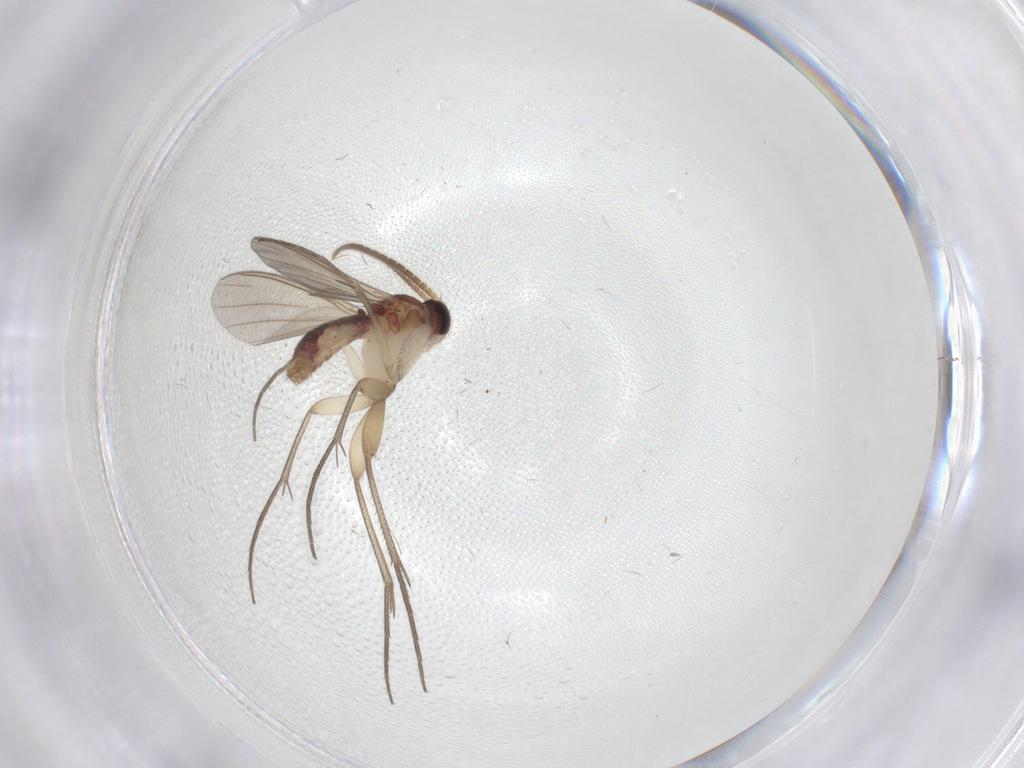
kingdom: Animalia
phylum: Arthropoda
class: Insecta
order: Diptera
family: Mycetophilidae
